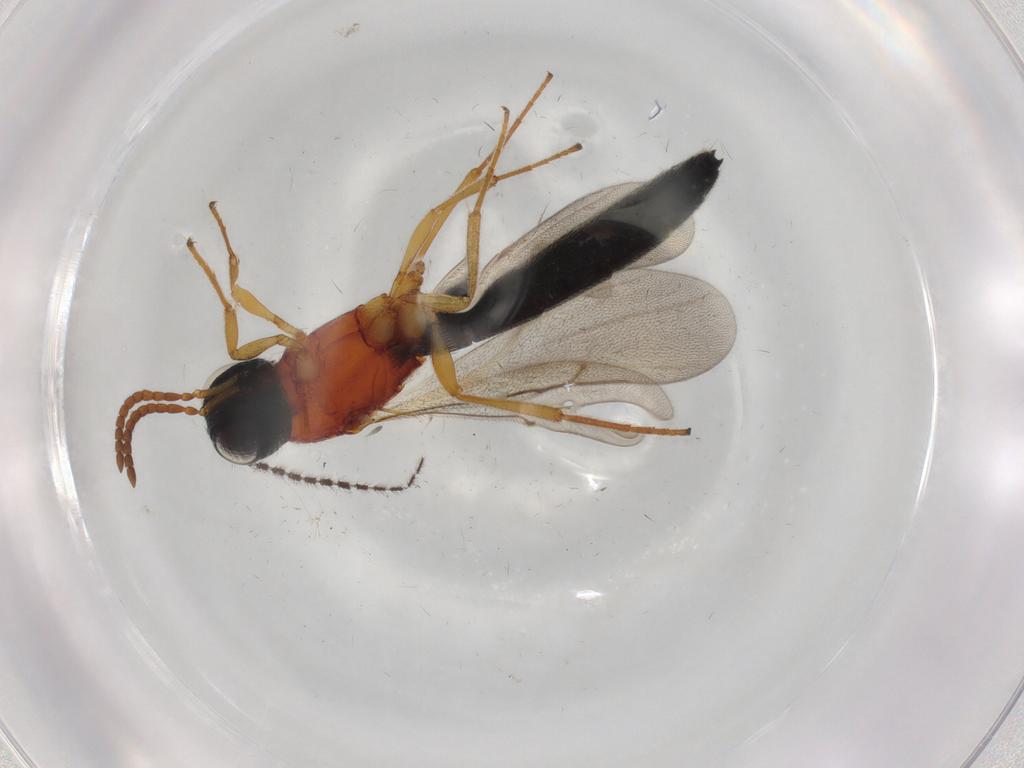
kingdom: Animalia
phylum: Arthropoda
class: Insecta
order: Hymenoptera
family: Scelionidae
